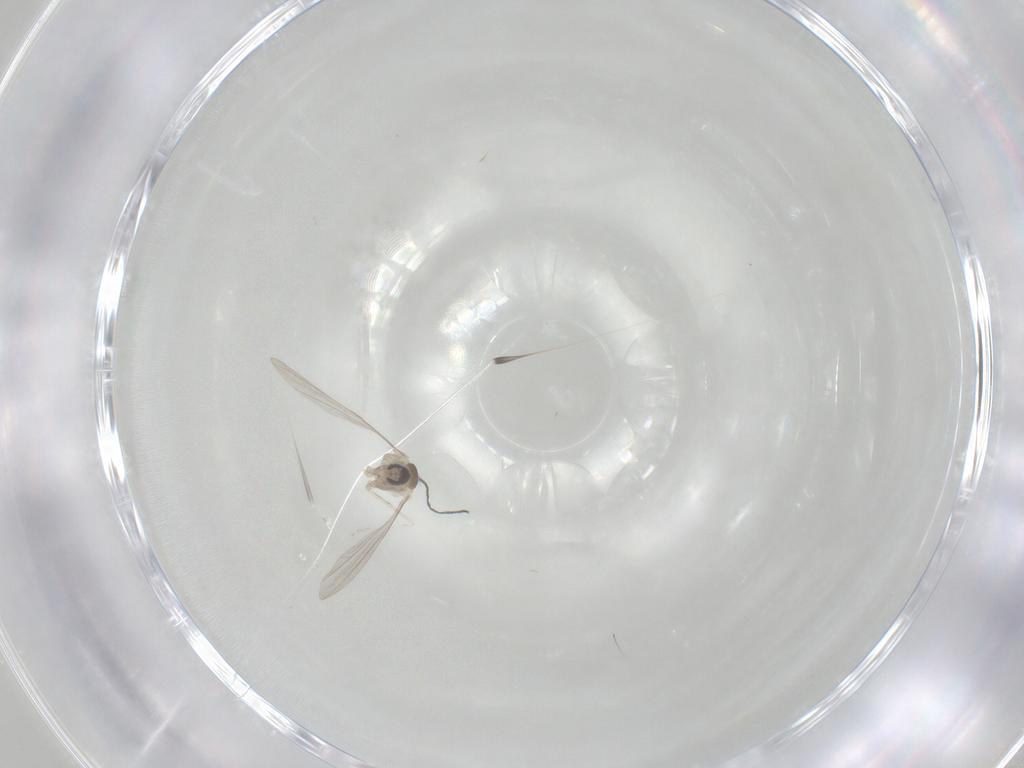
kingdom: Animalia
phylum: Arthropoda
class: Insecta
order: Diptera
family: Cecidomyiidae
